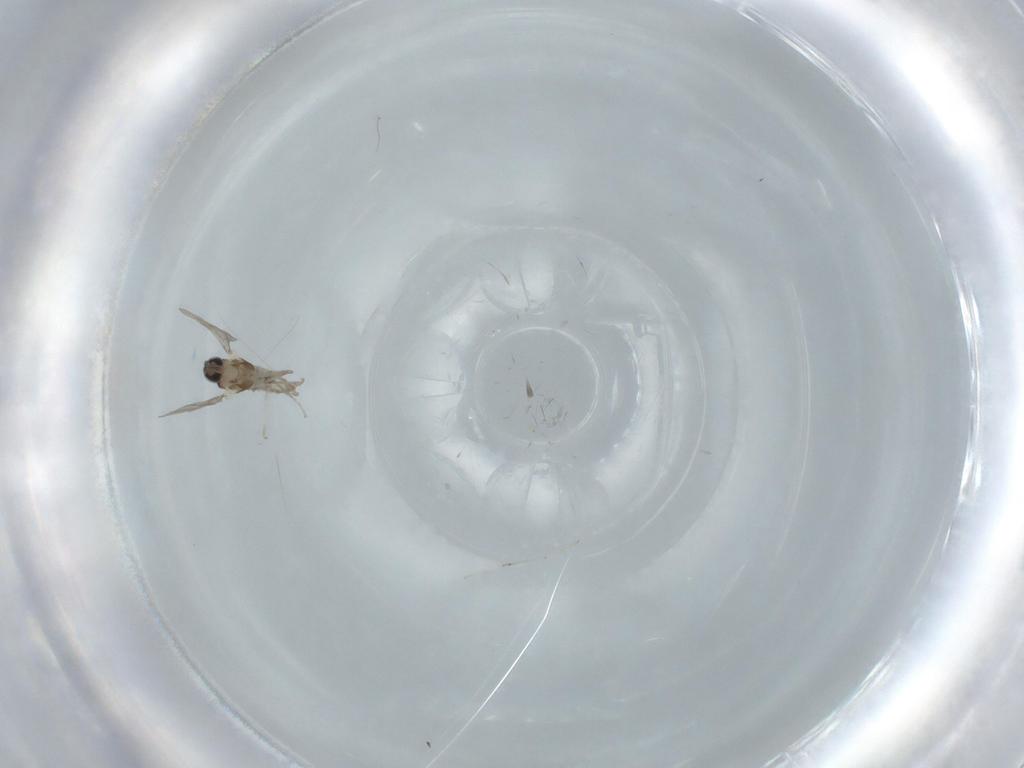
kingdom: Animalia
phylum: Arthropoda
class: Insecta
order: Diptera
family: Cecidomyiidae
